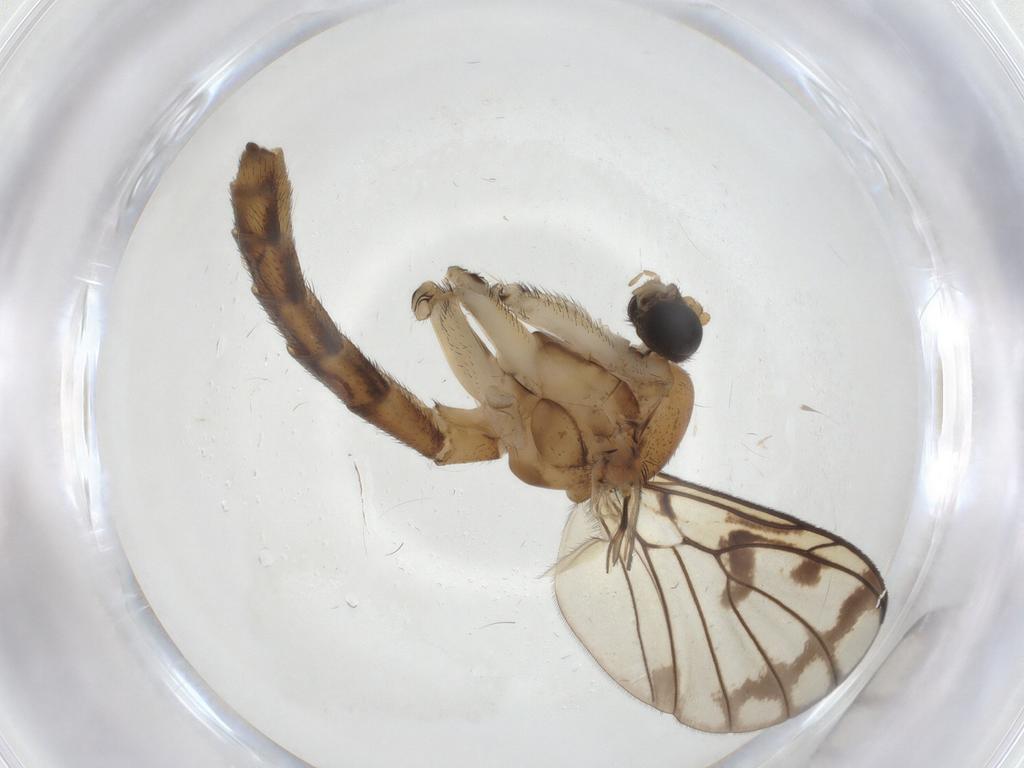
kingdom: Animalia
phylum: Arthropoda
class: Insecta
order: Diptera
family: Keroplatidae
